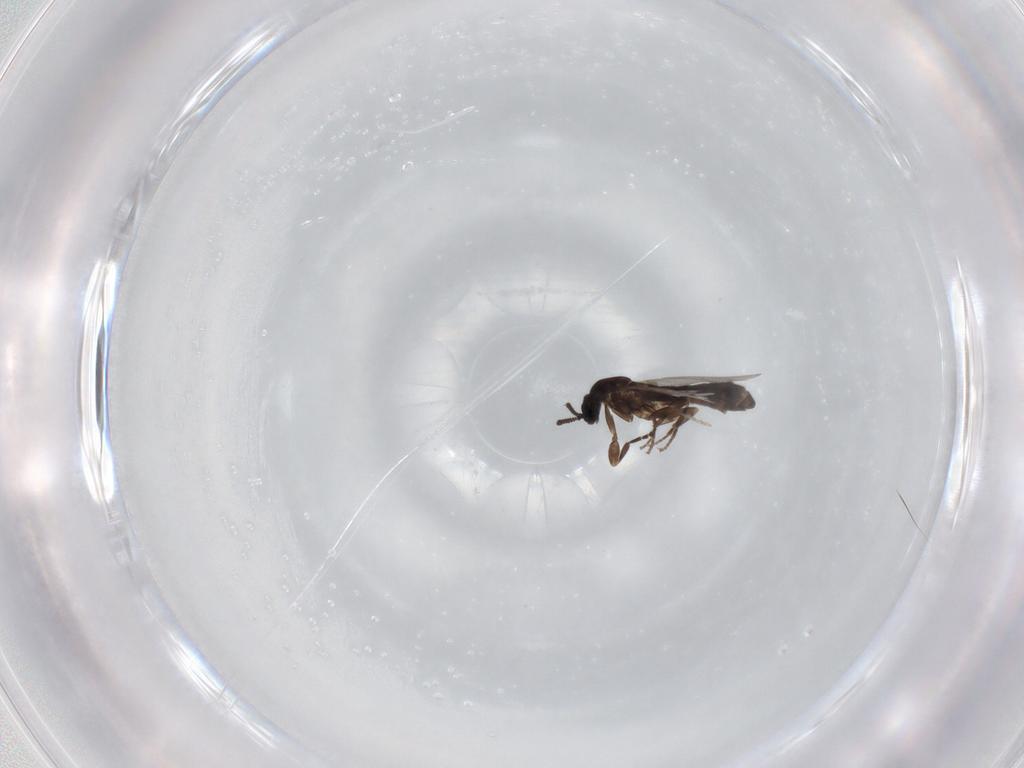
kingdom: Animalia
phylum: Arthropoda
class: Insecta
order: Diptera
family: Scatopsidae
